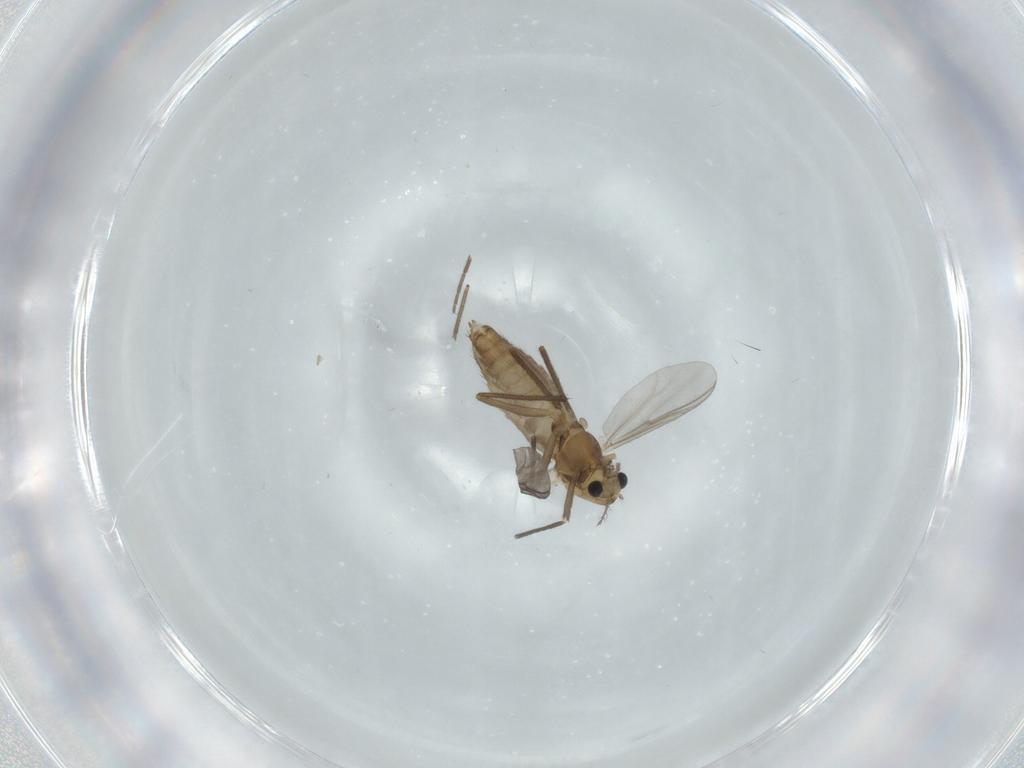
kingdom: Animalia
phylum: Arthropoda
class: Insecta
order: Diptera
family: Chironomidae
